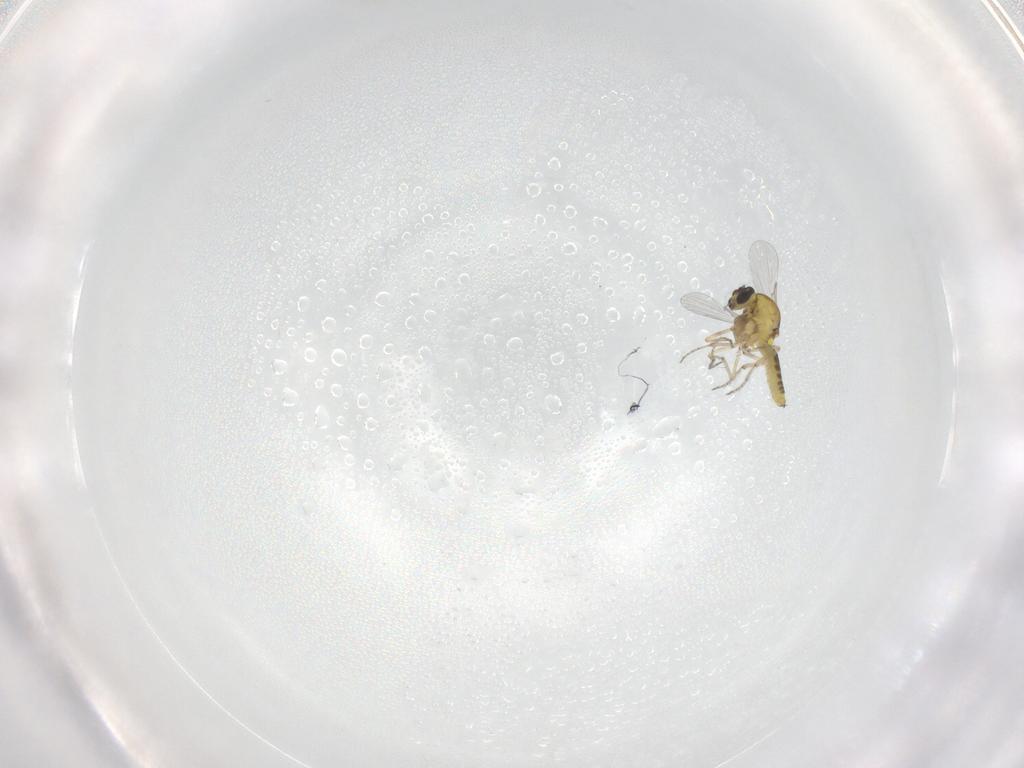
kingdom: Animalia
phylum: Arthropoda
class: Insecta
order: Diptera
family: Cecidomyiidae
